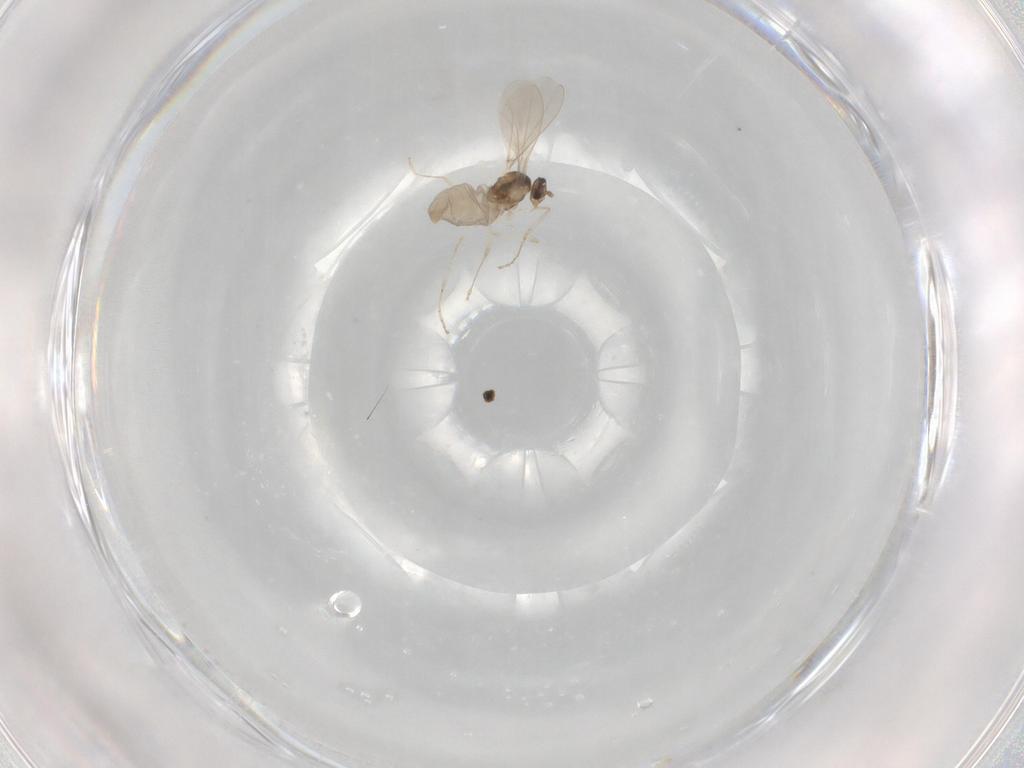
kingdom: Animalia
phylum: Arthropoda
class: Insecta
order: Diptera
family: Cecidomyiidae
